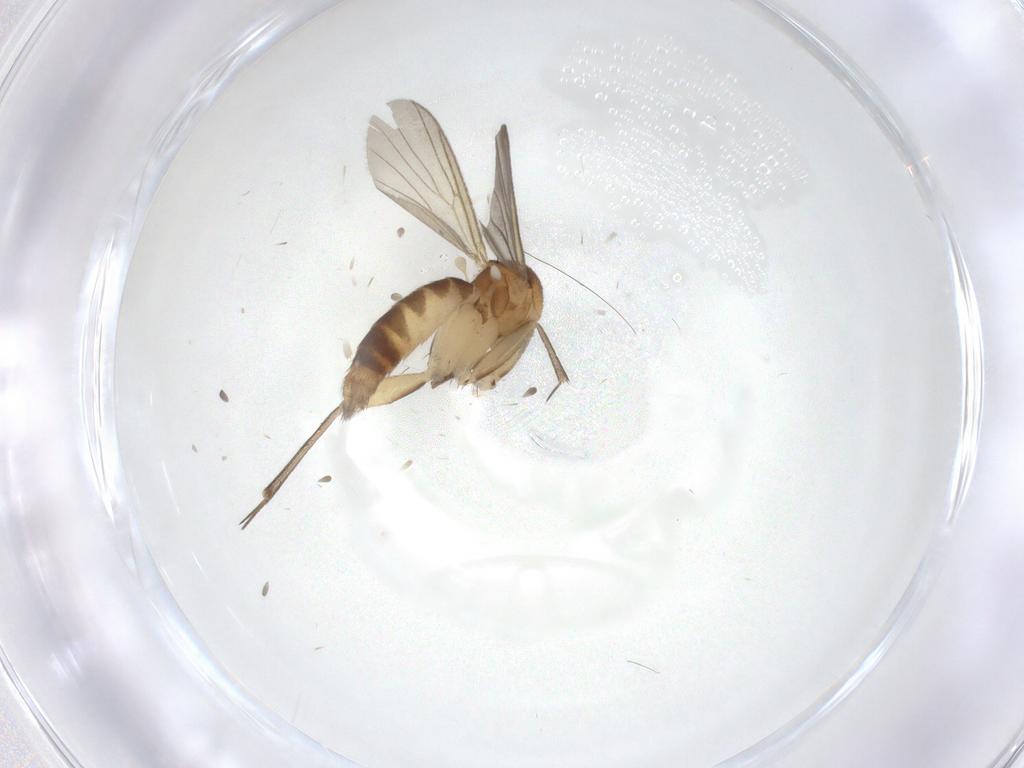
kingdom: Animalia
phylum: Arthropoda
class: Insecta
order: Diptera
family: Mycetophilidae
